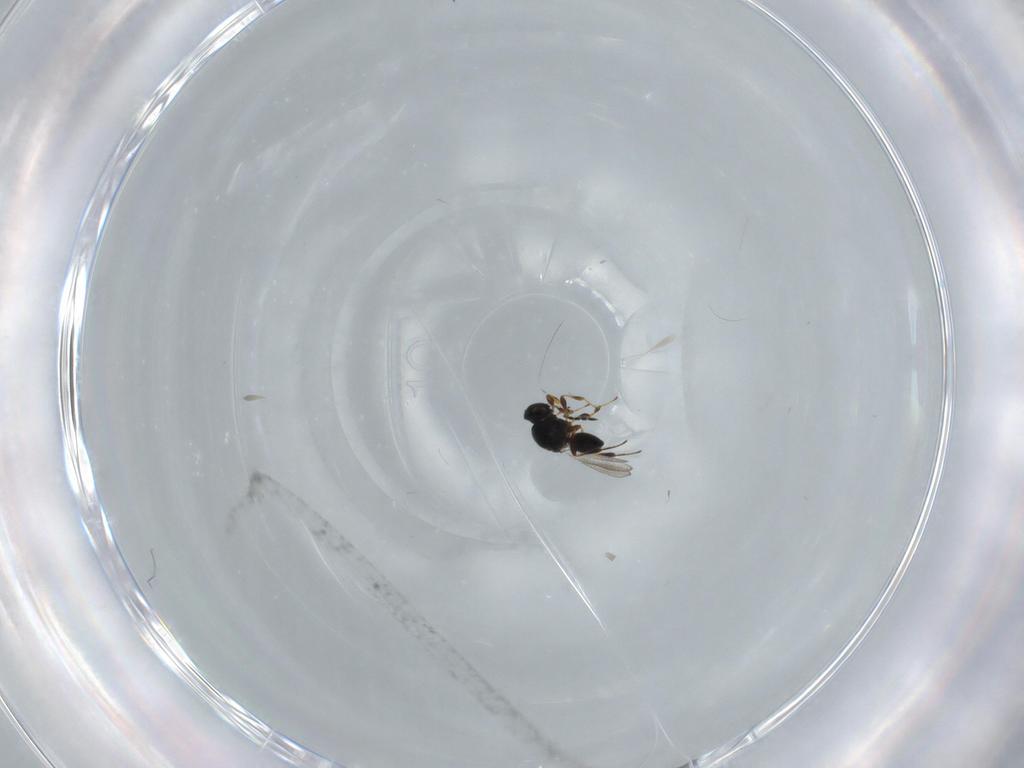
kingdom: Animalia
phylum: Arthropoda
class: Insecta
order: Hymenoptera
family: Platygastridae
